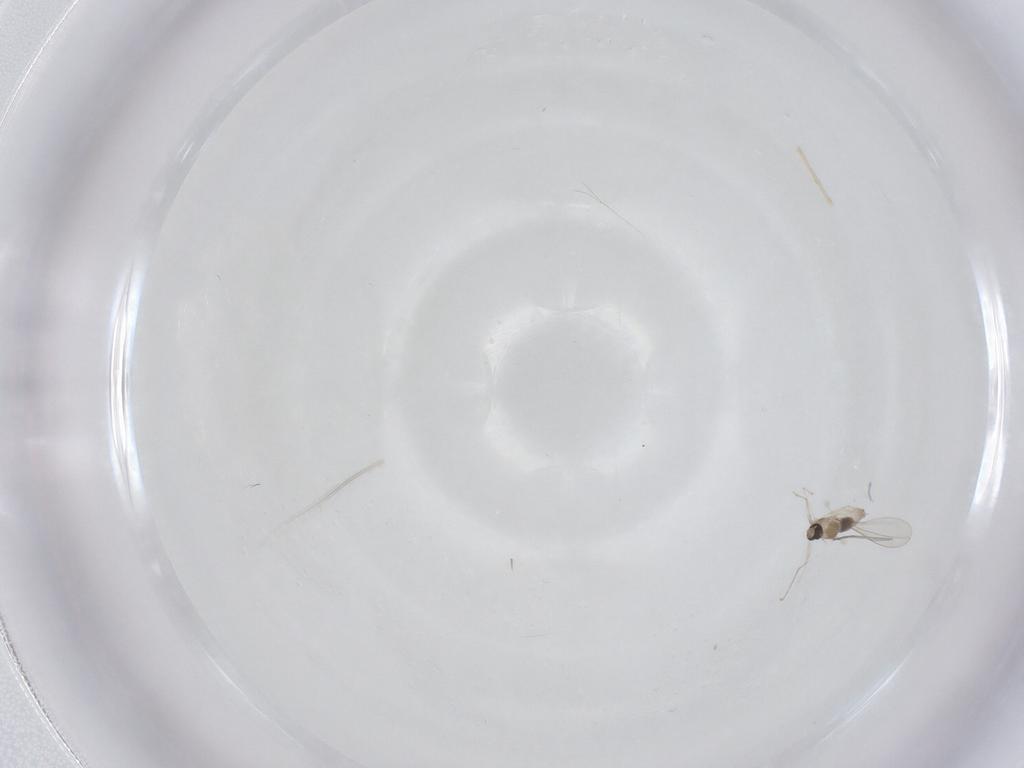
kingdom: Animalia
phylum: Arthropoda
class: Insecta
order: Diptera
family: Cecidomyiidae
